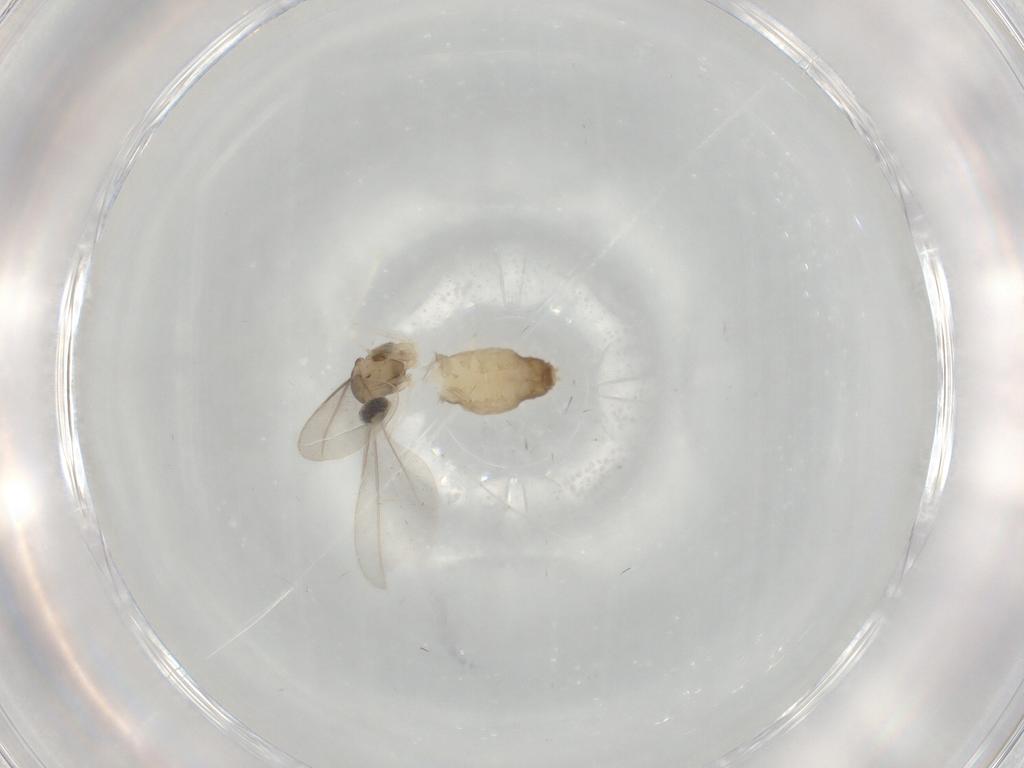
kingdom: Animalia
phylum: Arthropoda
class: Insecta
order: Diptera
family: Cecidomyiidae
